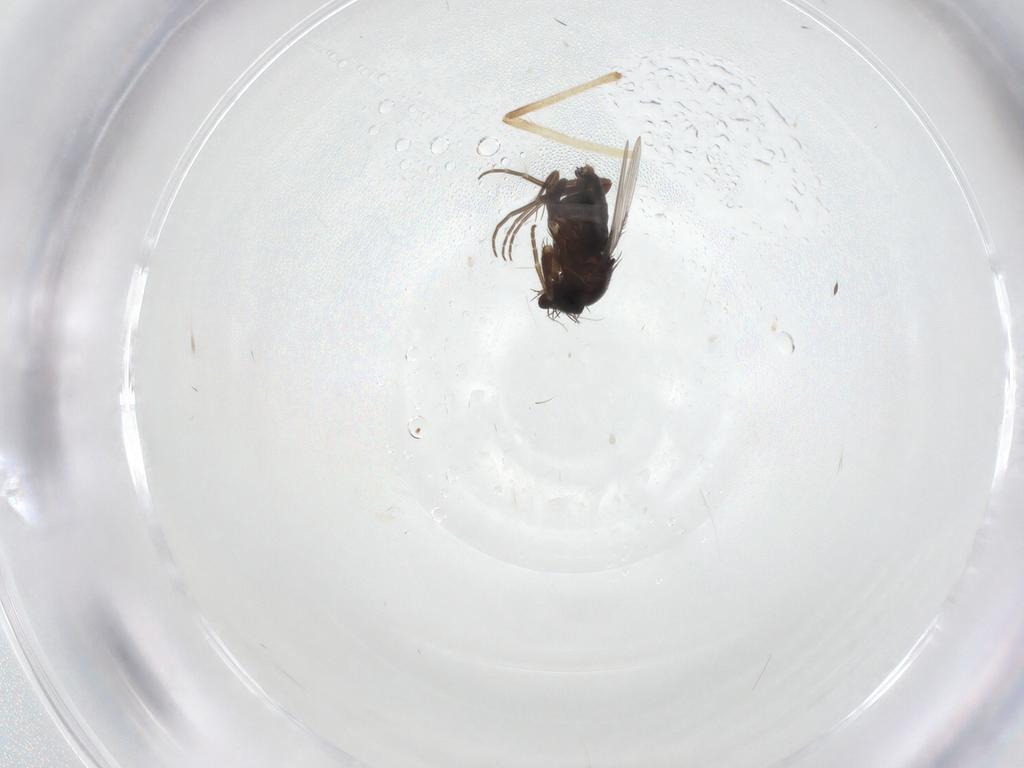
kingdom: Animalia
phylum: Arthropoda
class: Insecta
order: Diptera
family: Phoridae
